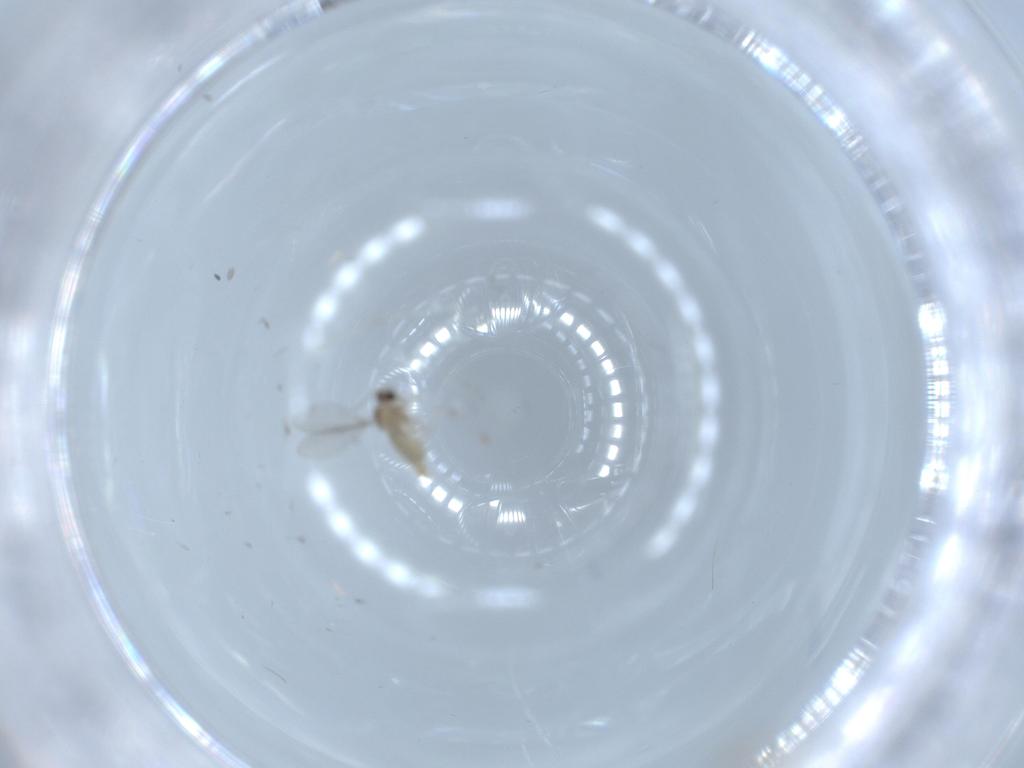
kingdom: Animalia
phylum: Arthropoda
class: Insecta
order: Diptera
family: Cecidomyiidae
